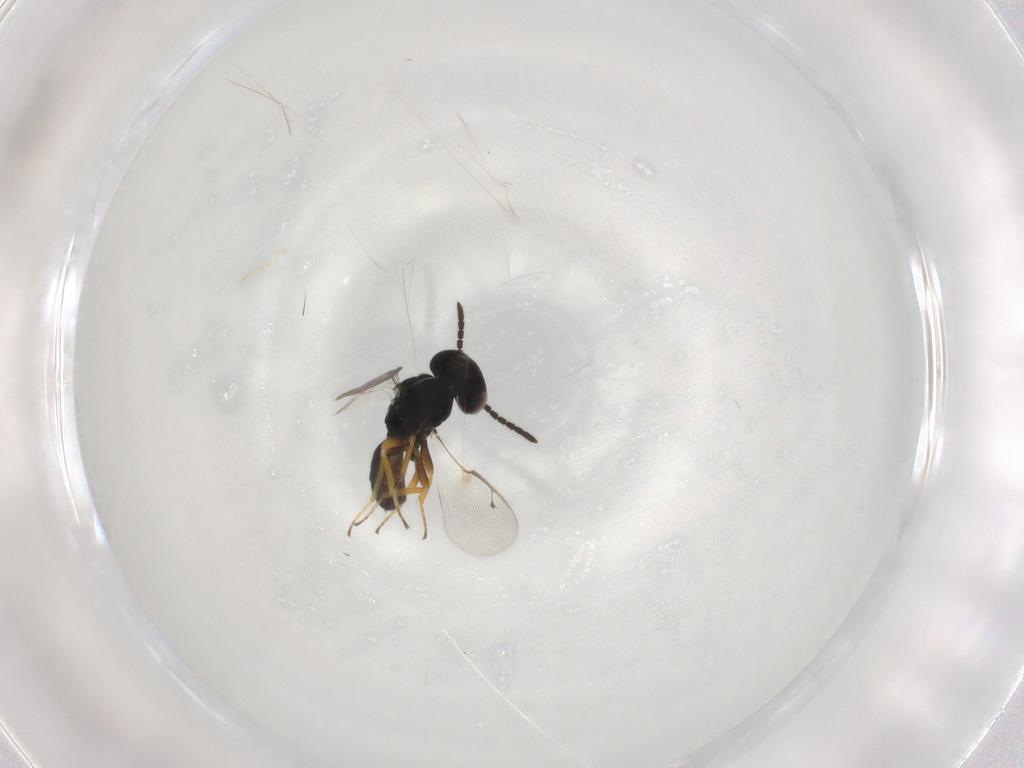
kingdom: Animalia
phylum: Arthropoda
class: Insecta
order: Hymenoptera
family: Pteromalidae
